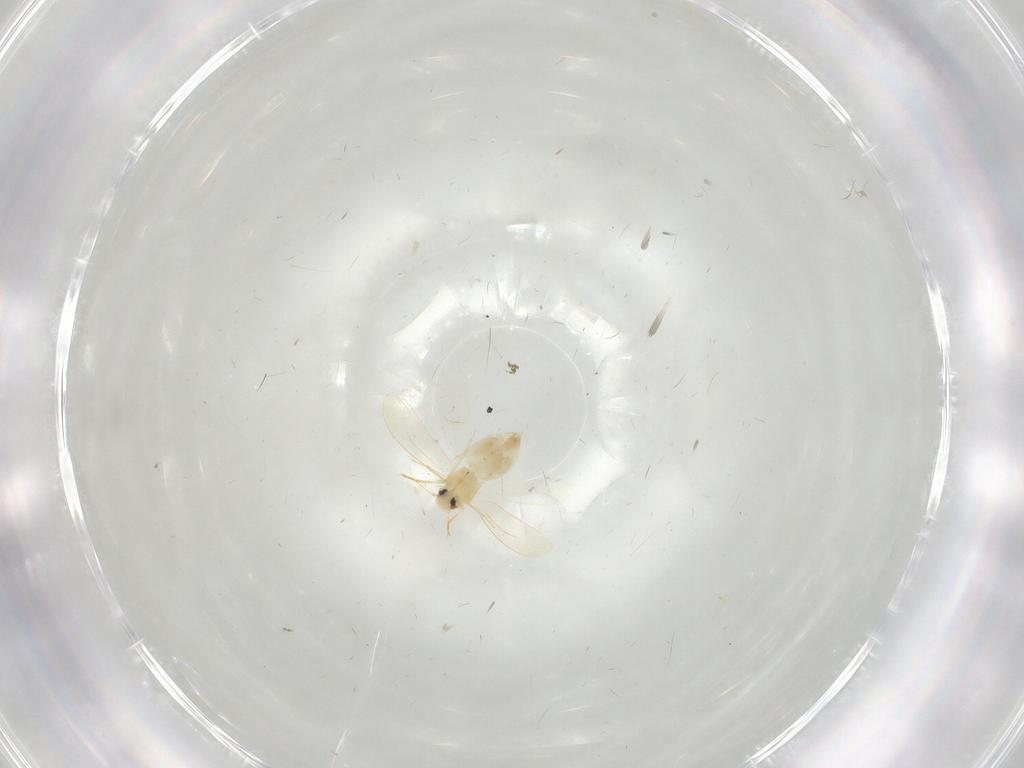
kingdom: Animalia
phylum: Arthropoda
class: Insecta
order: Hemiptera
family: Aleyrodidae
